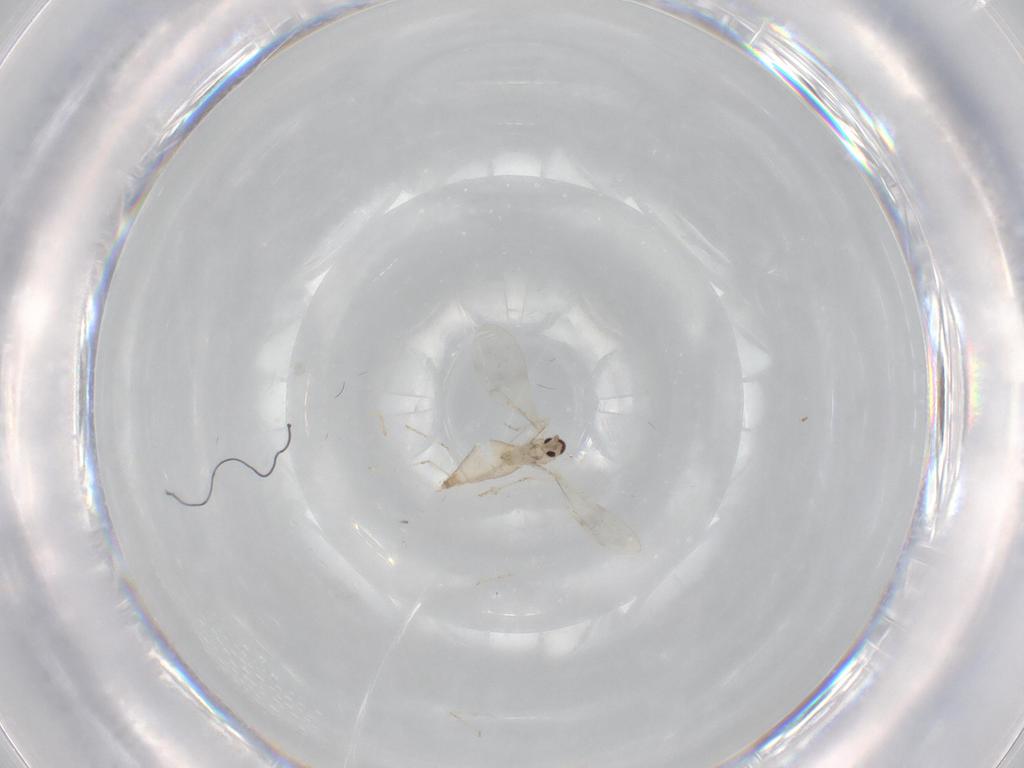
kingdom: Animalia
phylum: Arthropoda
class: Insecta
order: Diptera
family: Cecidomyiidae
